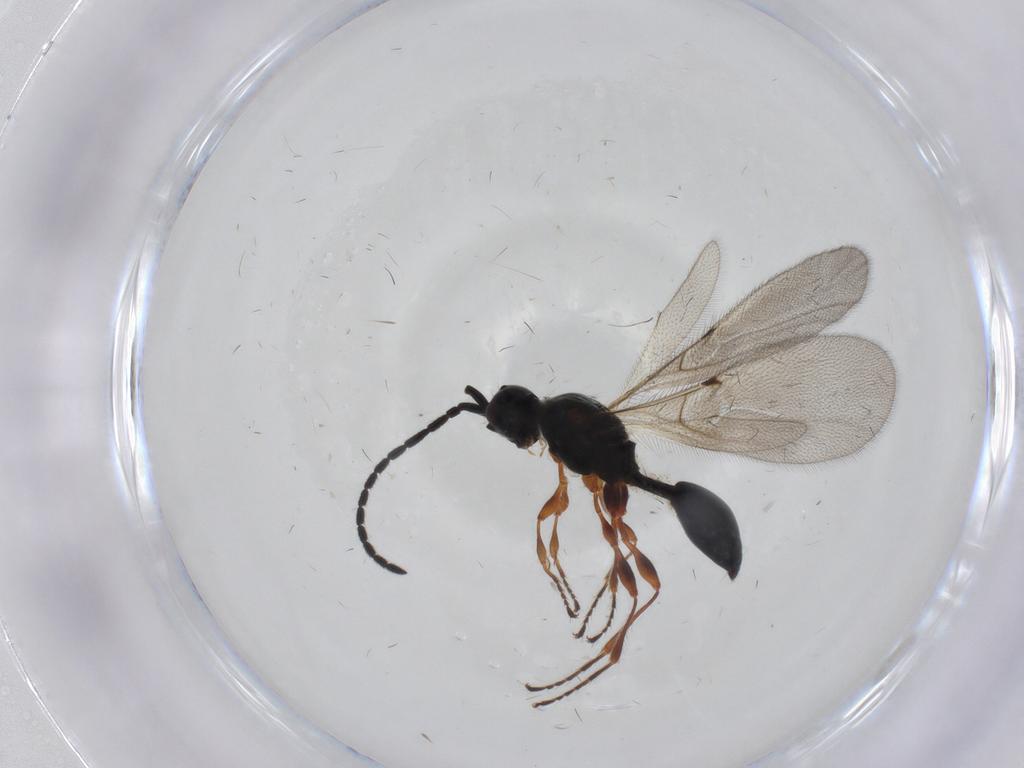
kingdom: Animalia
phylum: Arthropoda
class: Insecta
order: Hymenoptera
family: Diapriidae
